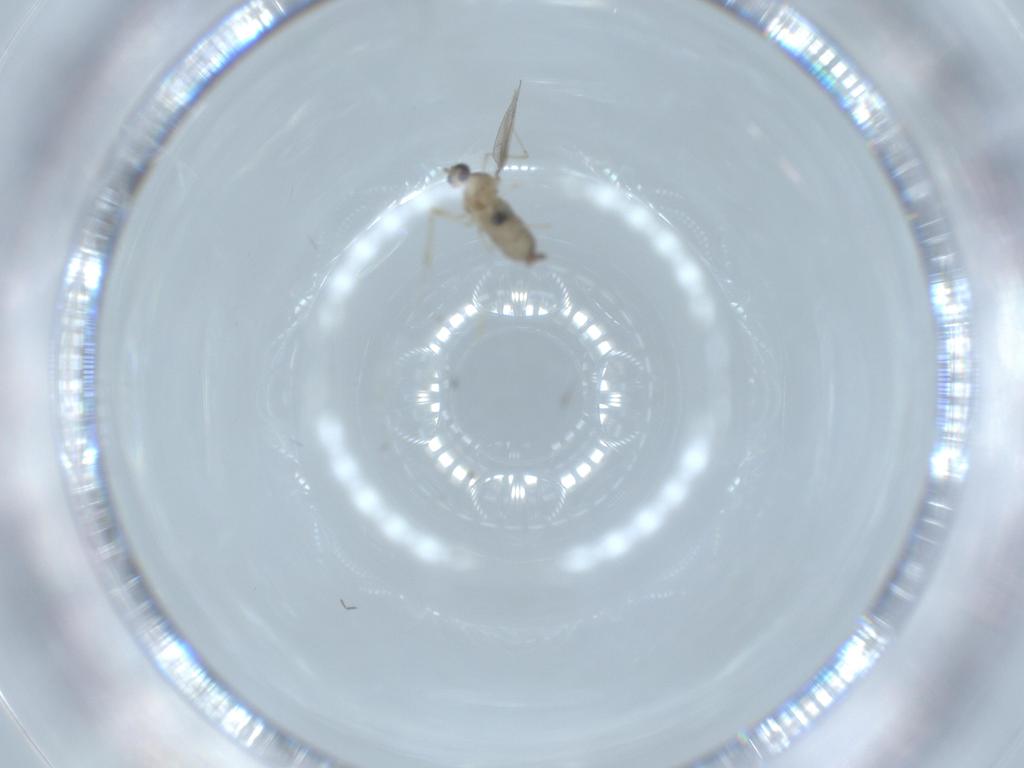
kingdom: Animalia
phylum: Arthropoda
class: Insecta
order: Diptera
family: Cecidomyiidae
